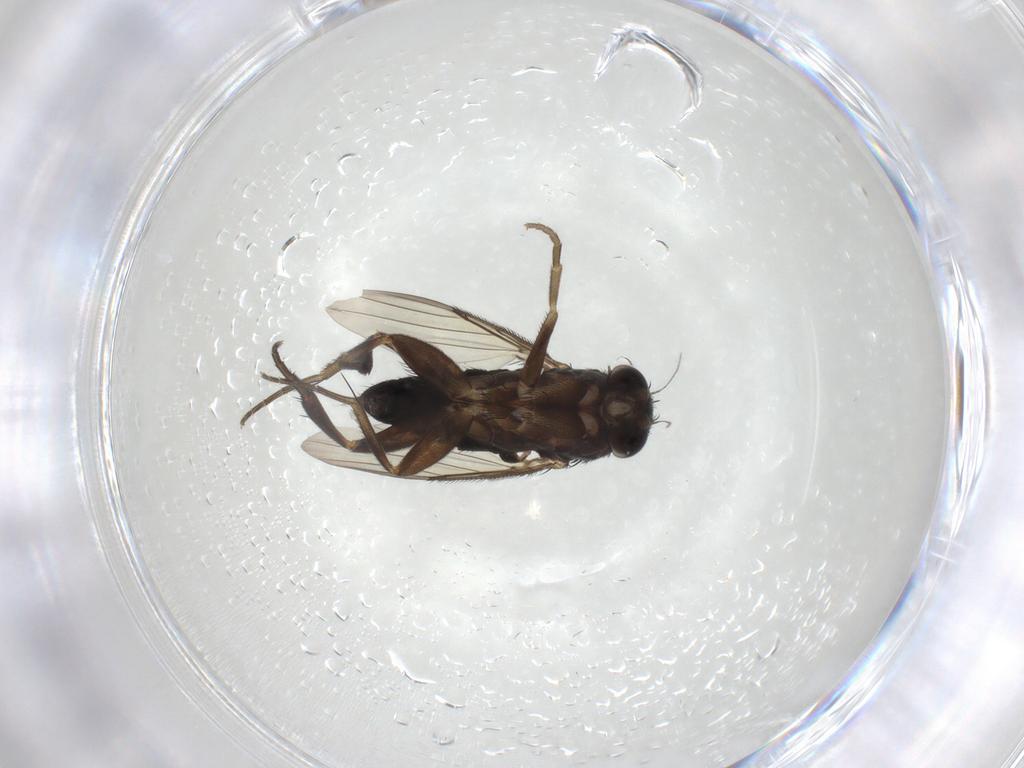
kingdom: Animalia
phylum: Arthropoda
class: Insecta
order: Diptera
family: Phoridae
